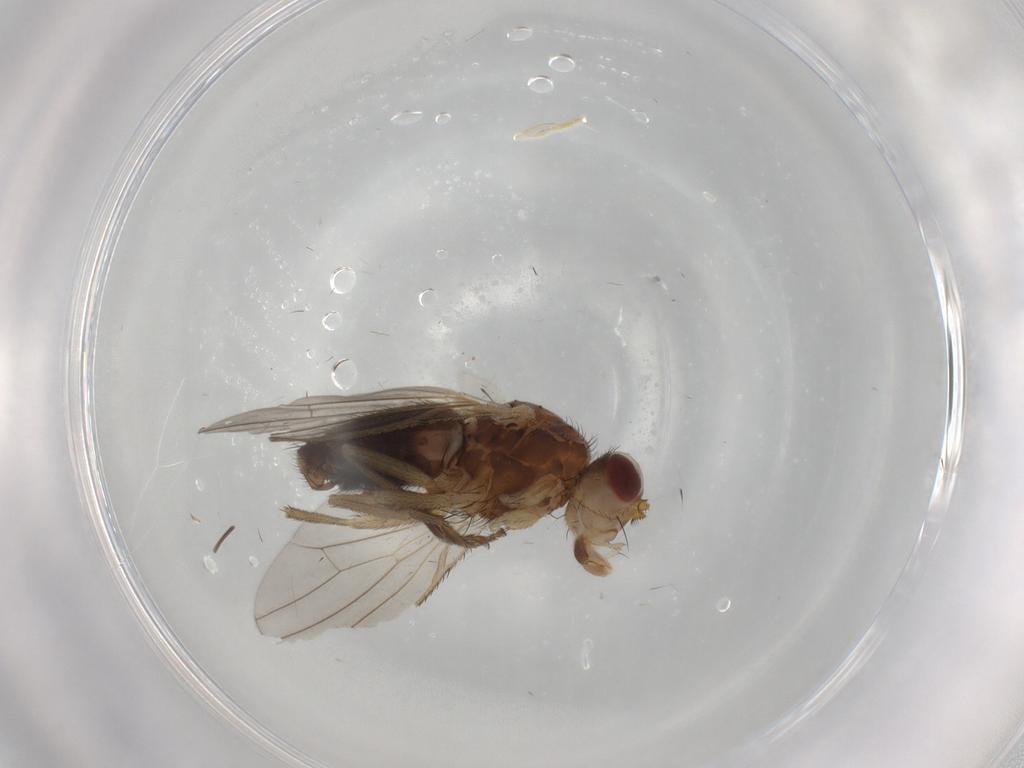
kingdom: Animalia
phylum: Arthropoda
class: Insecta
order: Diptera
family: Heleomyzidae
